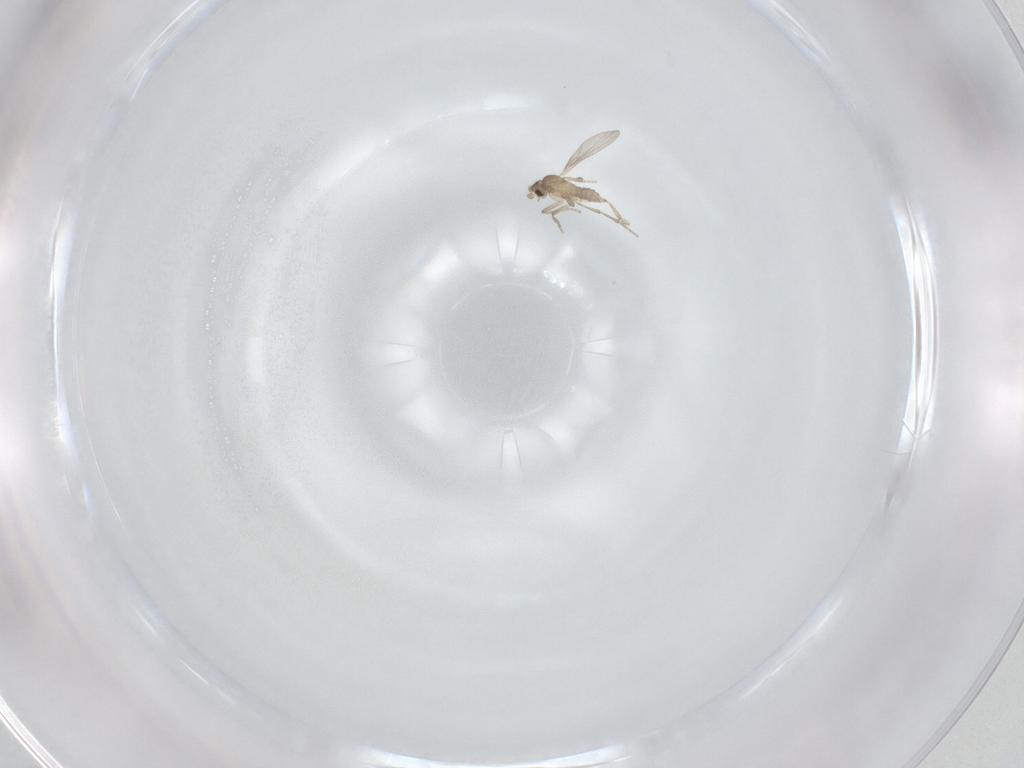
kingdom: Animalia
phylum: Arthropoda
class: Insecta
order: Diptera
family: Phoridae
